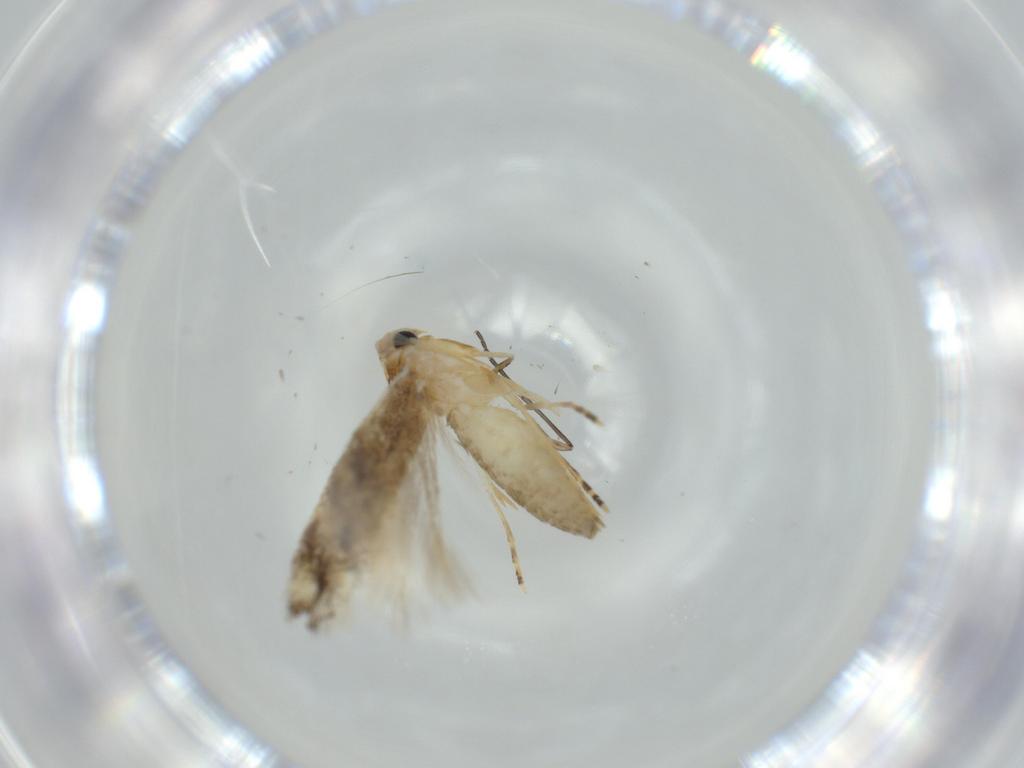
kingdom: Animalia
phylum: Arthropoda
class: Insecta
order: Lepidoptera
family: Bucculatricidae
